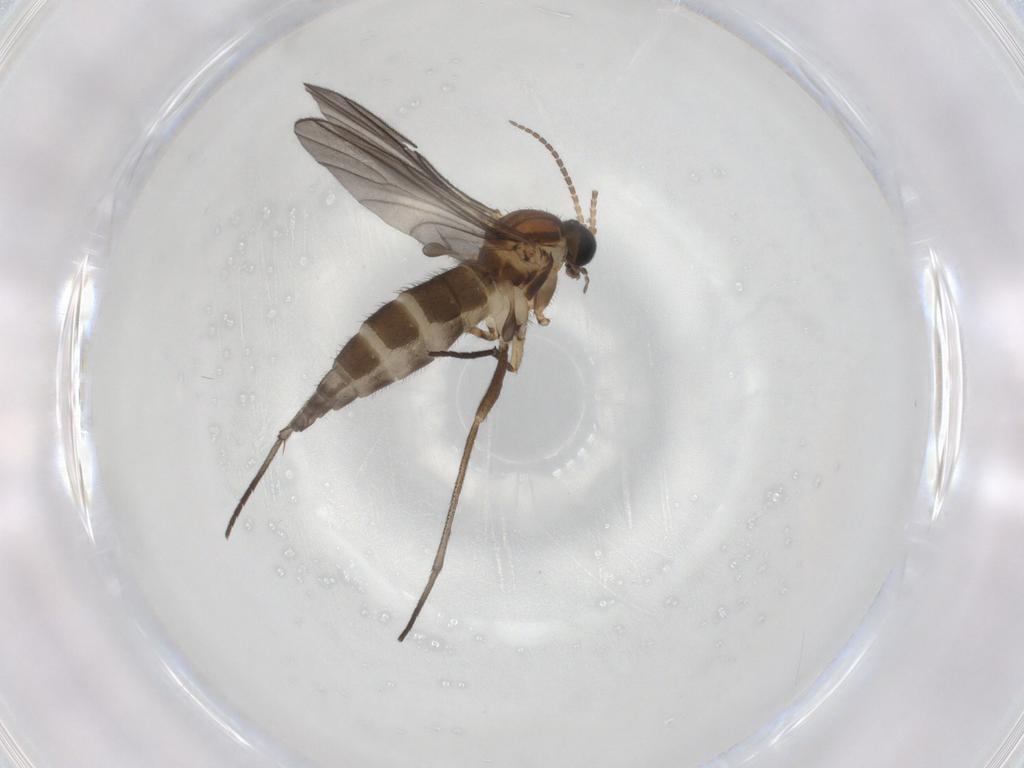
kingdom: Animalia
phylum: Arthropoda
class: Insecta
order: Diptera
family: Sciaridae
